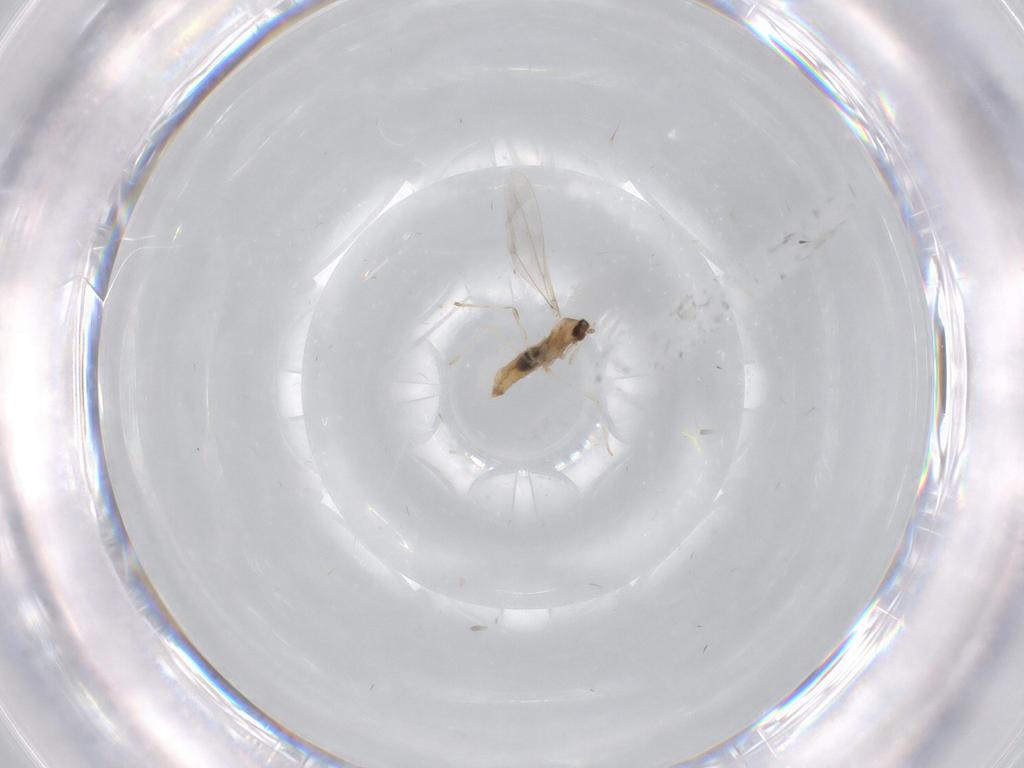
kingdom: Animalia
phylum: Arthropoda
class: Insecta
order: Diptera
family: Cecidomyiidae
